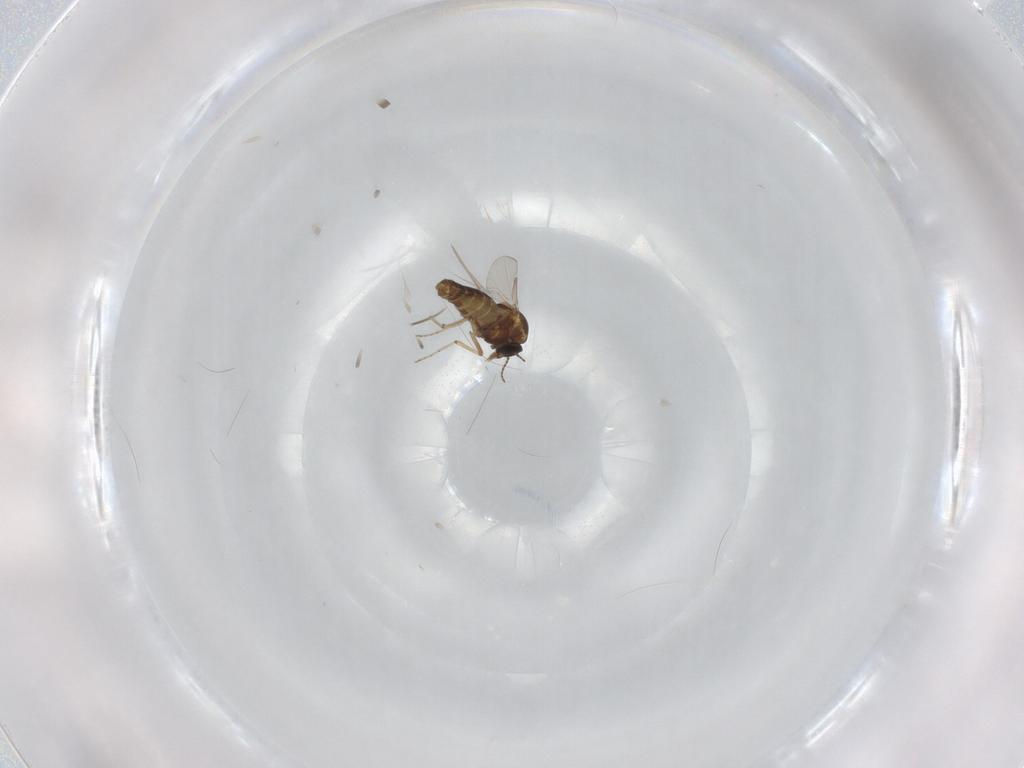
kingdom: Animalia
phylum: Arthropoda
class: Insecta
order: Diptera
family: Ceratopogonidae
